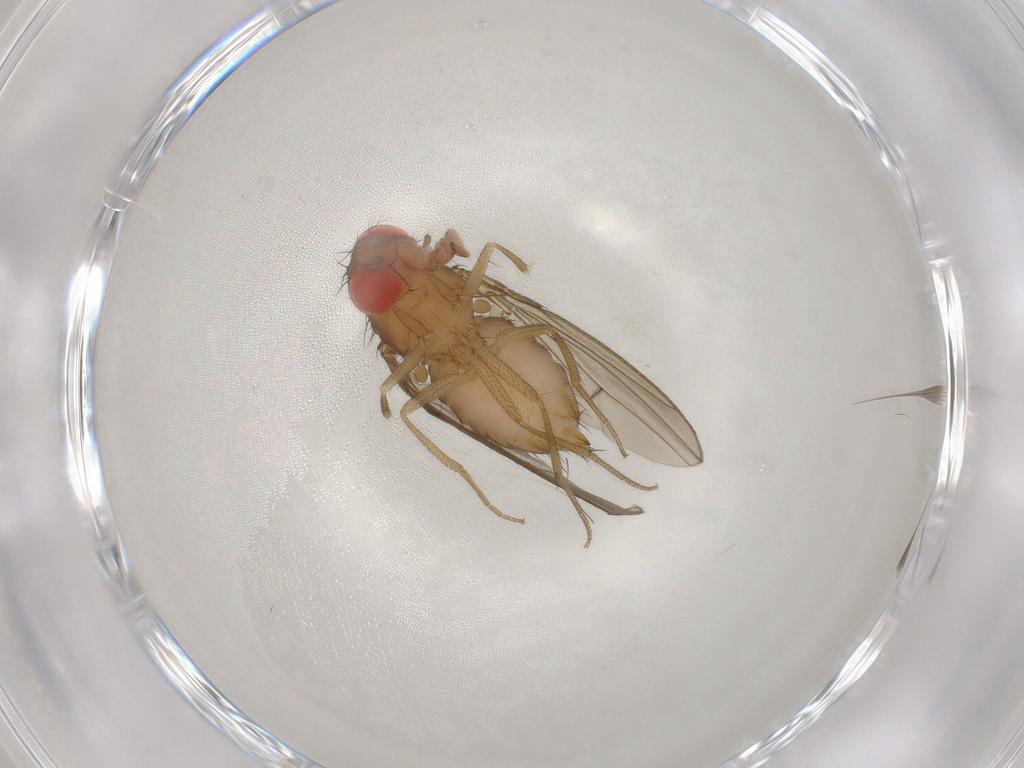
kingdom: Animalia
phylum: Arthropoda
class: Insecta
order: Diptera
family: Drosophilidae
